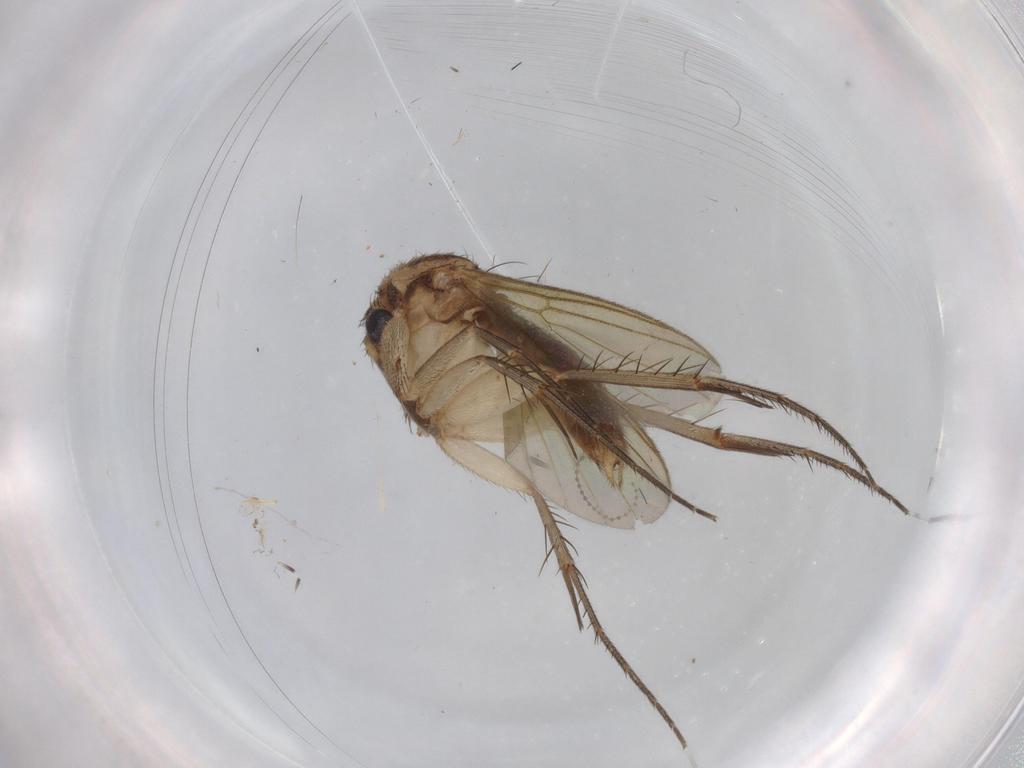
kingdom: Animalia
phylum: Arthropoda
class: Insecta
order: Diptera
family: Mycetophilidae
